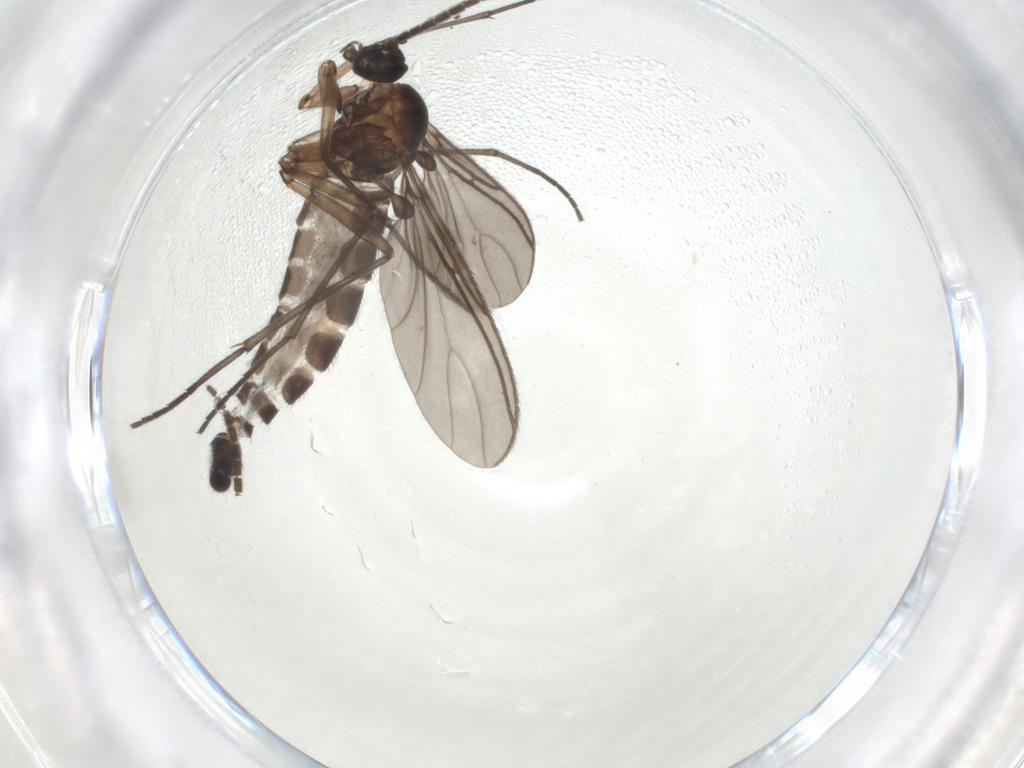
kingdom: Animalia
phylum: Arthropoda
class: Insecta
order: Diptera
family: Sciaridae
